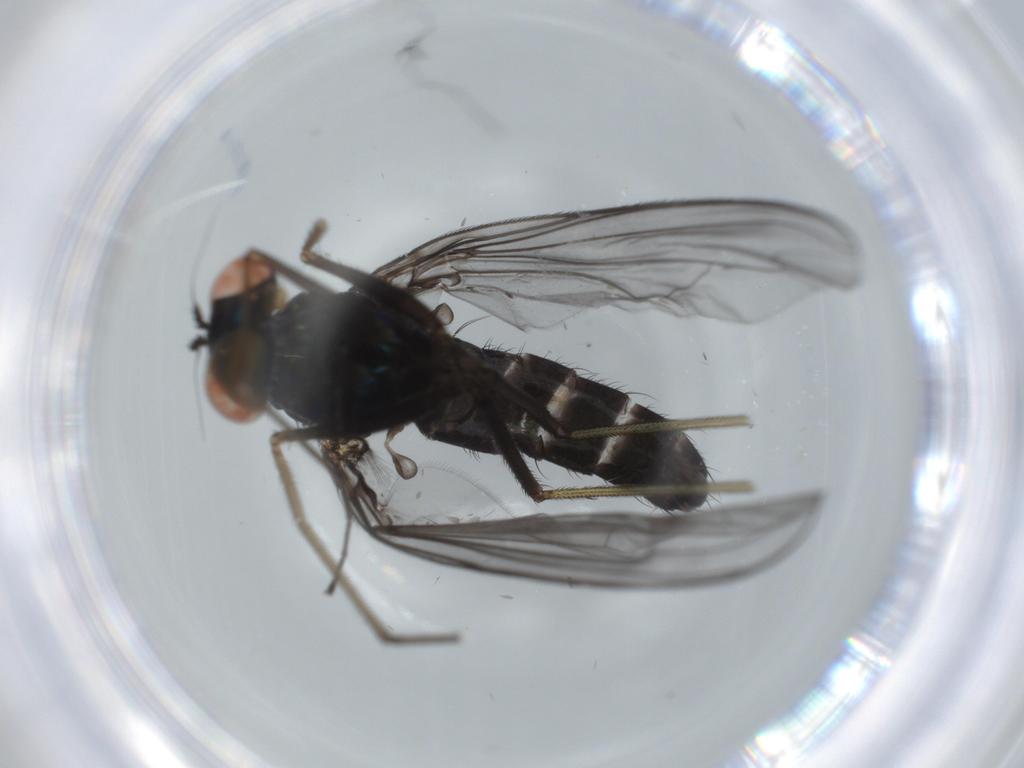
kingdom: Animalia
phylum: Arthropoda
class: Insecta
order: Diptera
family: Dolichopodidae
